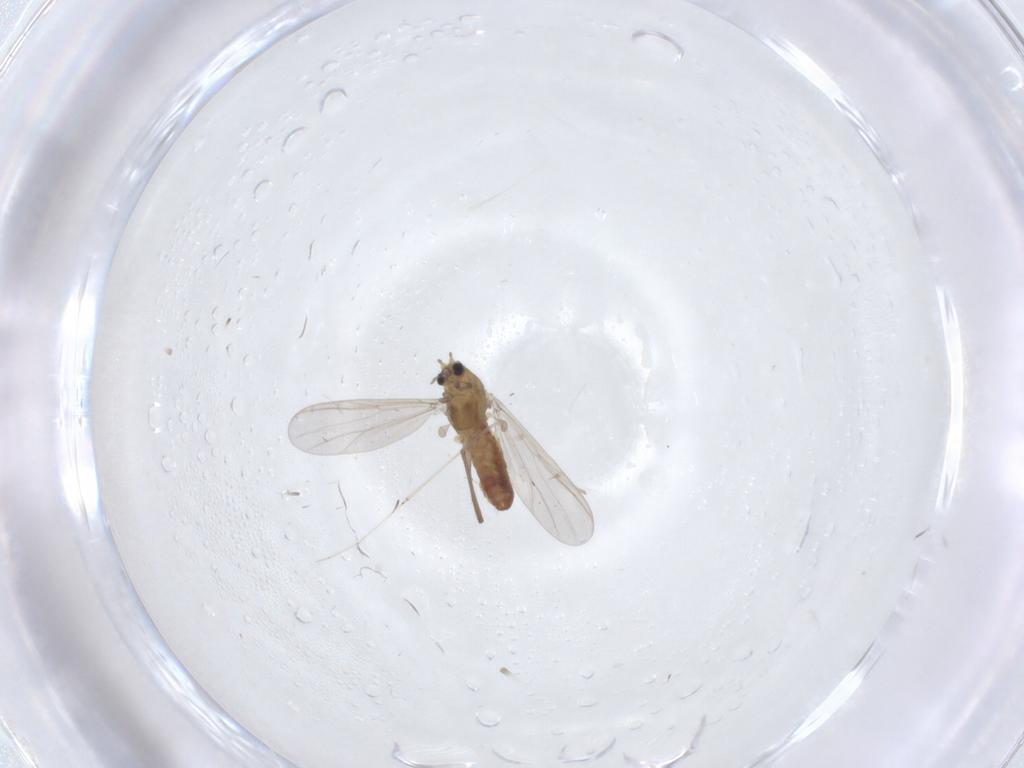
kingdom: Animalia
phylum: Arthropoda
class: Insecta
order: Diptera
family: Chironomidae
